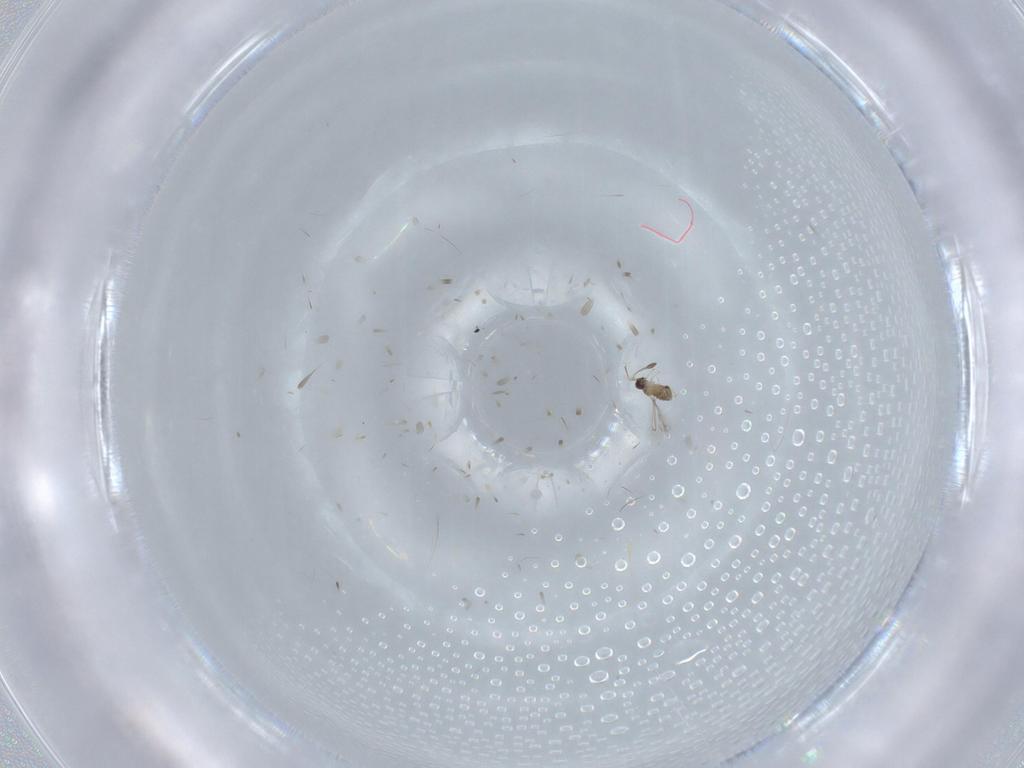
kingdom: Animalia
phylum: Arthropoda
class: Insecta
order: Hymenoptera
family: Mymaridae
